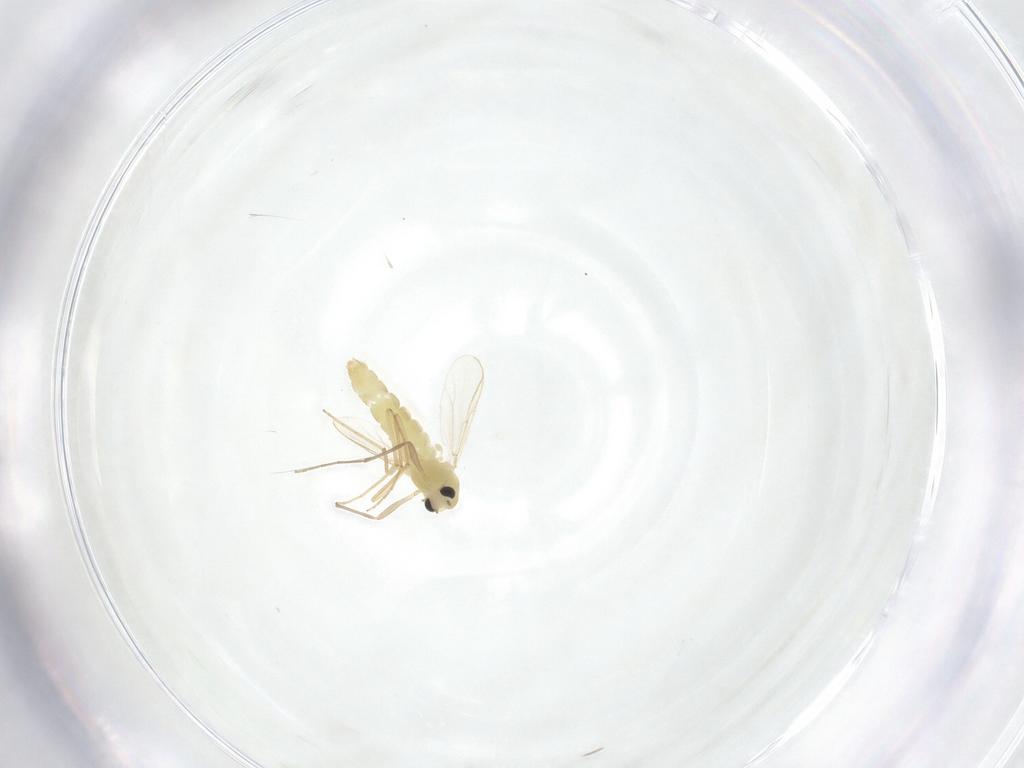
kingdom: Animalia
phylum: Arthropoda
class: Insecta
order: Diptera
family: Chironomidae
